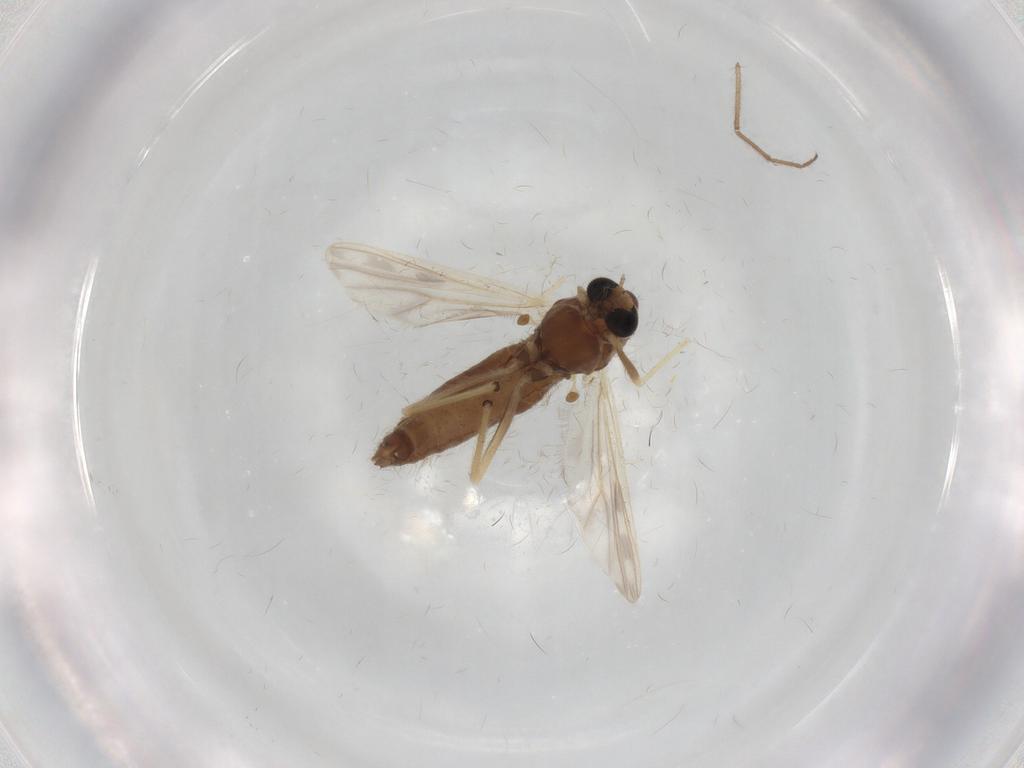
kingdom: Animalia
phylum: Arthropoda
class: Insecta
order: Diptera
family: Chironomidae
